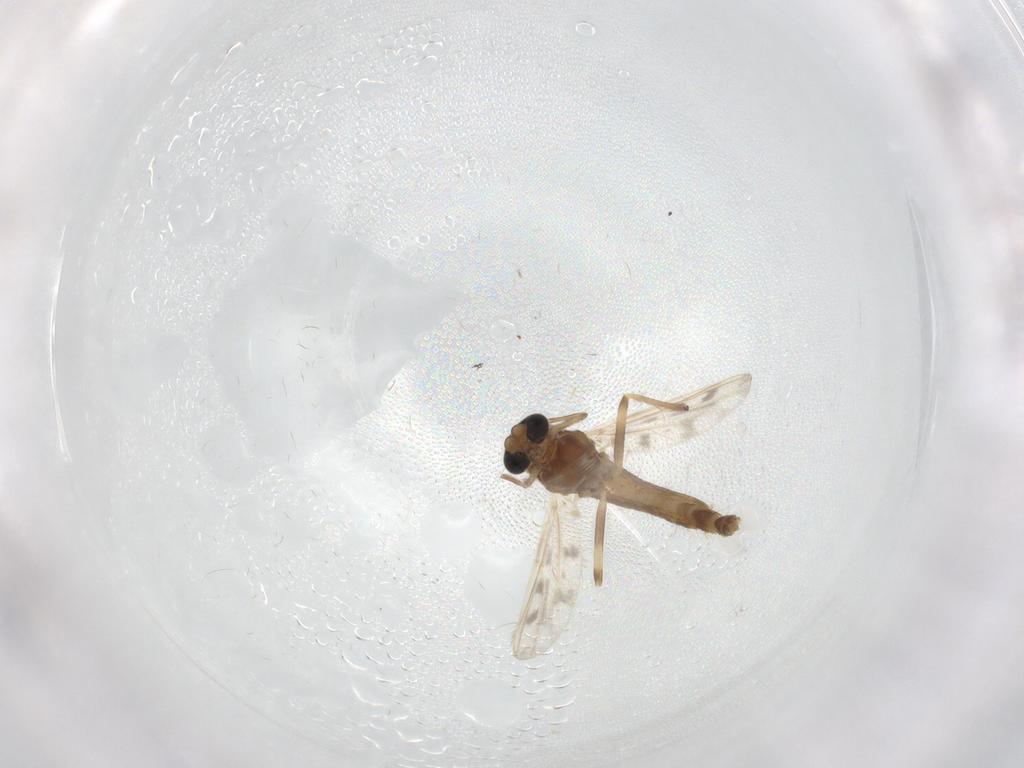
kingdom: Animalia
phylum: Arthropoda
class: Insecta
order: Diptera
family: Chironomidae
